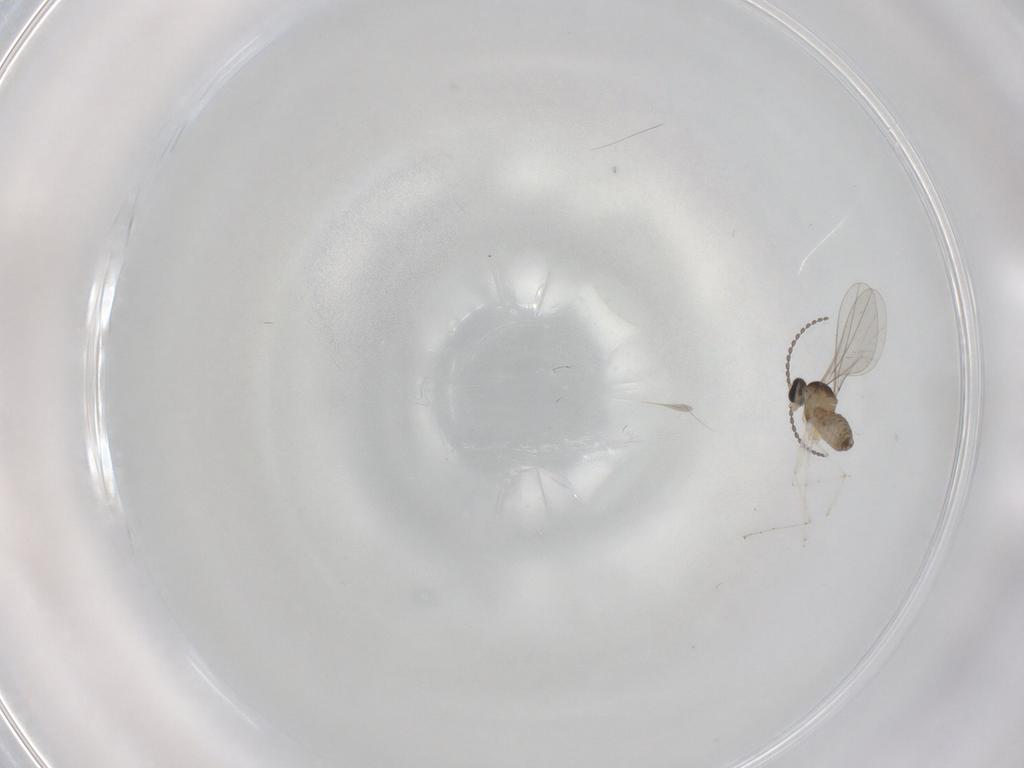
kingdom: Animalia
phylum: Arthropoda
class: Insecta
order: Diptera
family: Cecidomyiidae
